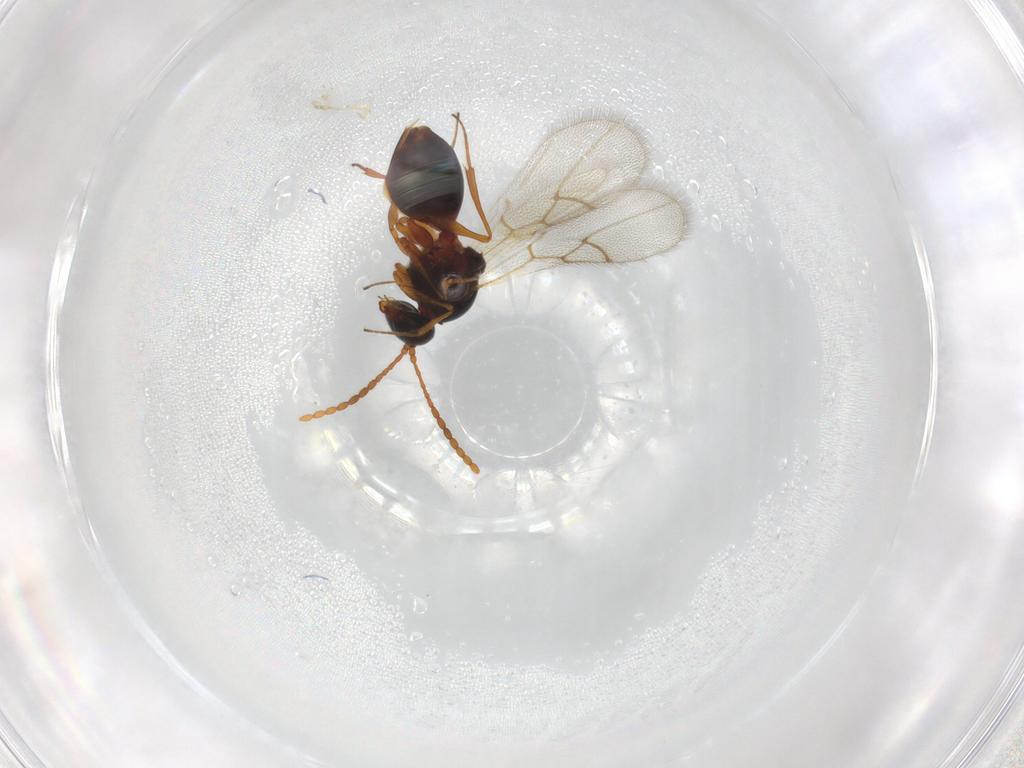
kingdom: Animalia
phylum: Arthropoda
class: Insecta
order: Hymenoptera
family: Figitidae
